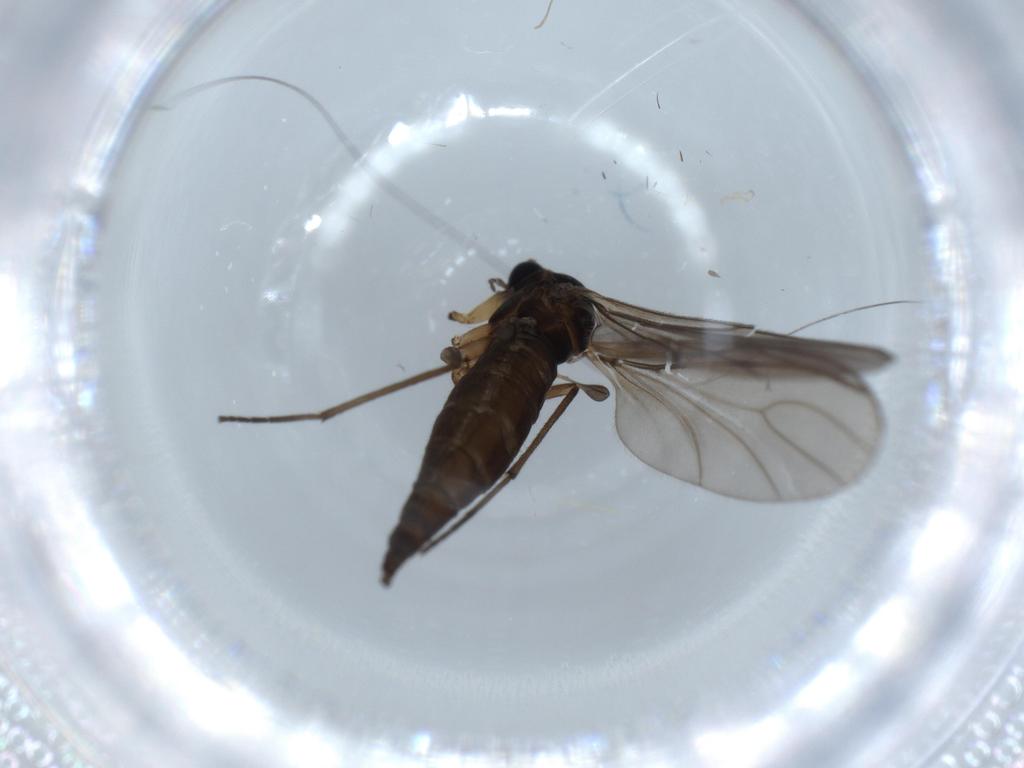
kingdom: Animalia
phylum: Arthropoda
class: Insecta
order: Diptera
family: Sciaridae
